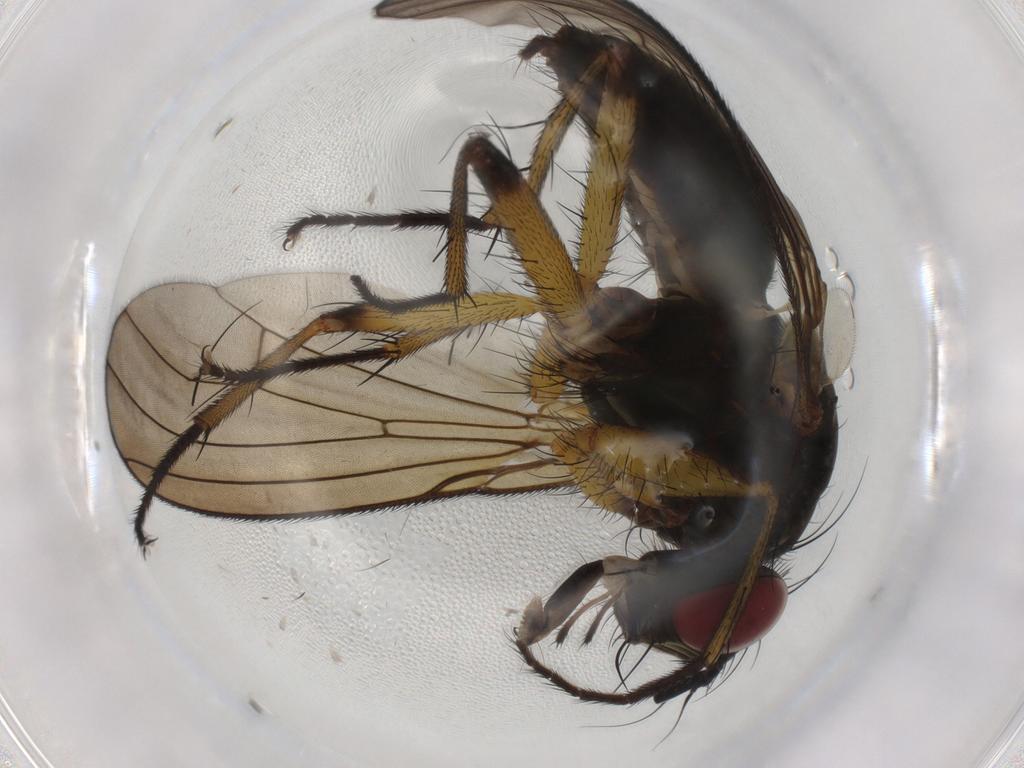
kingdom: Animalia
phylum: Arthropoda
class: Insecta
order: Diptera
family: Muscidae
